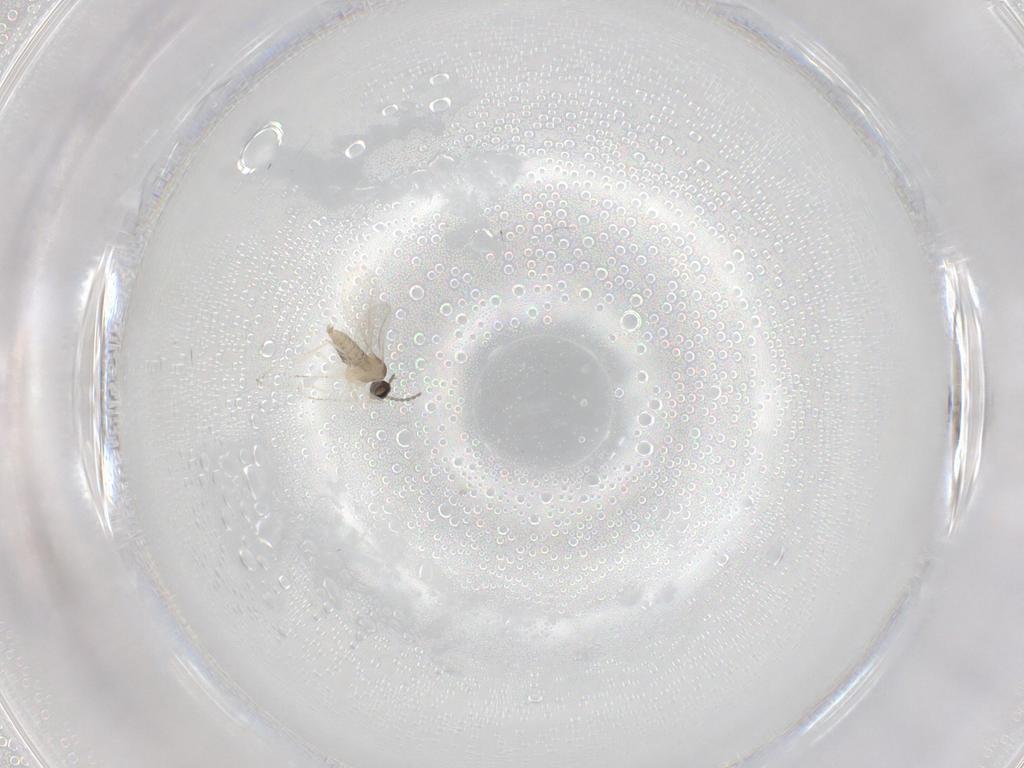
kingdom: Animalia
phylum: Arthropoda
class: Insecta
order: Diptera
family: Cecidomyiidae
